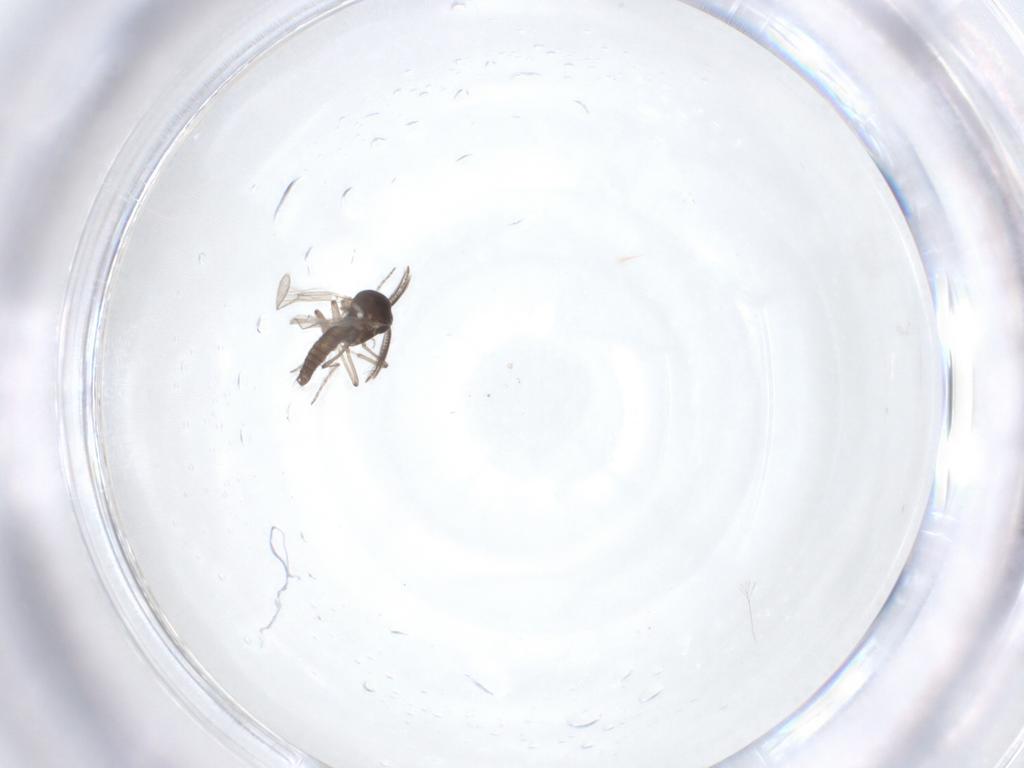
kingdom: Animalia
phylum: Arthropoda
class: Insecta
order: Diptera
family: Ceratopogonidae
